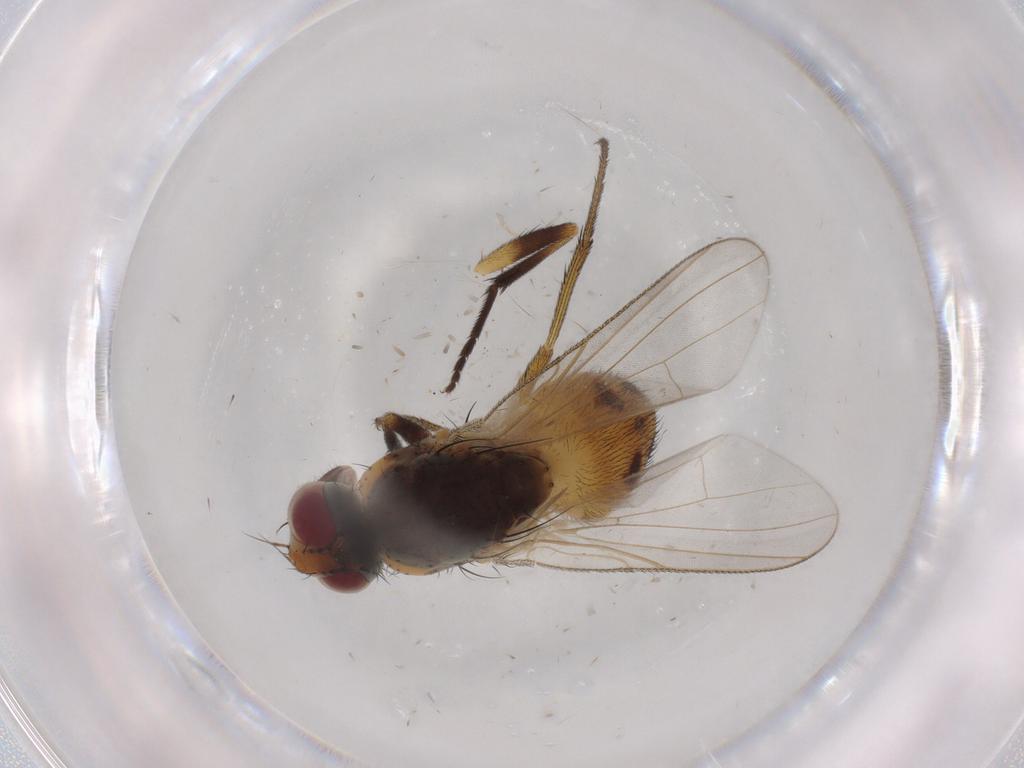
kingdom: Animalia
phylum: Arthropoda
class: Insecta
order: Diptera
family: Muscidae
